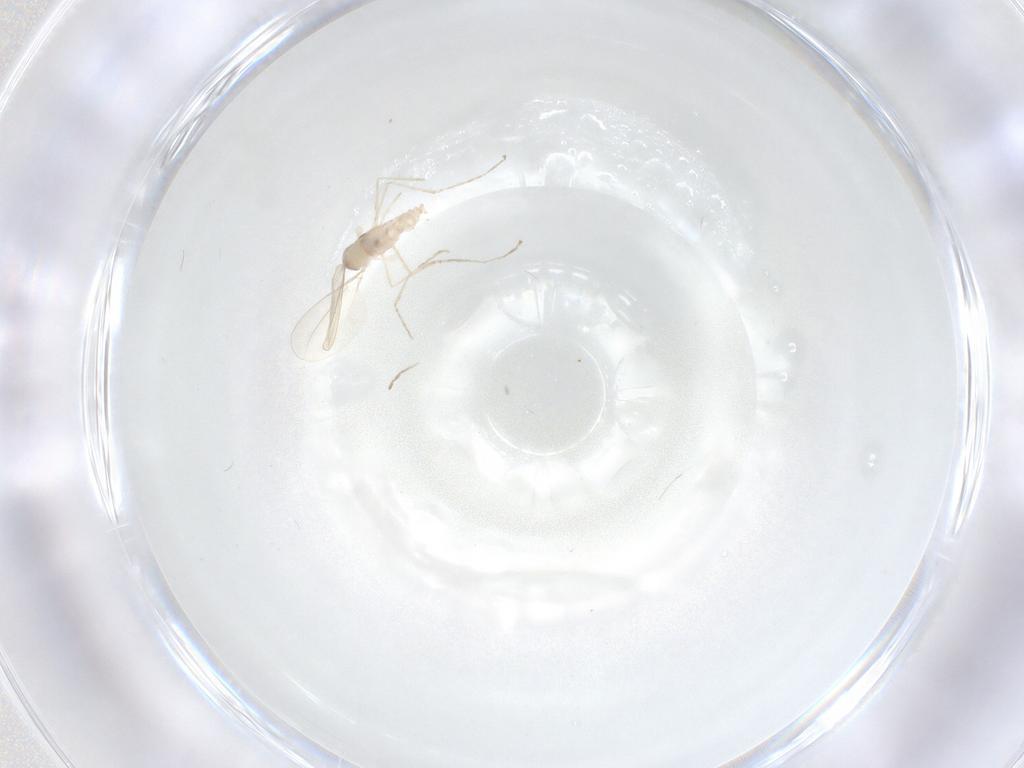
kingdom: Animalia
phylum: Arthropoda
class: Insecta
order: Diptera
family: Cecidomyiidae
